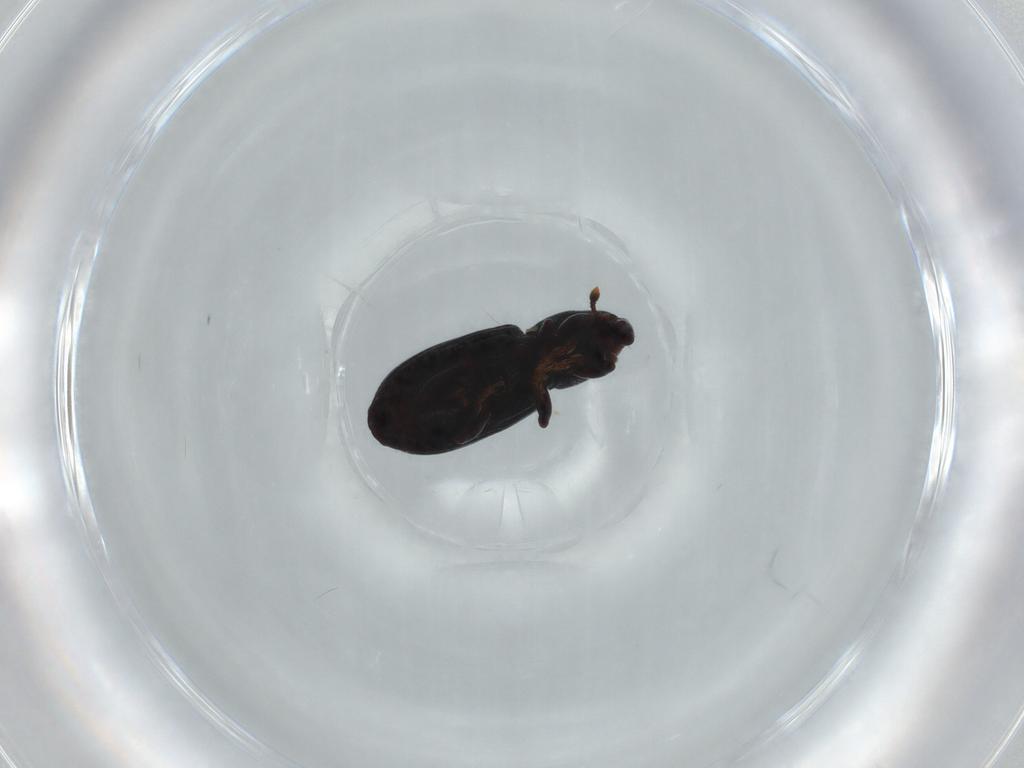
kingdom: Animalia
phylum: Arthropoda
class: Insecta
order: Coleoptera
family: Curculionidae
